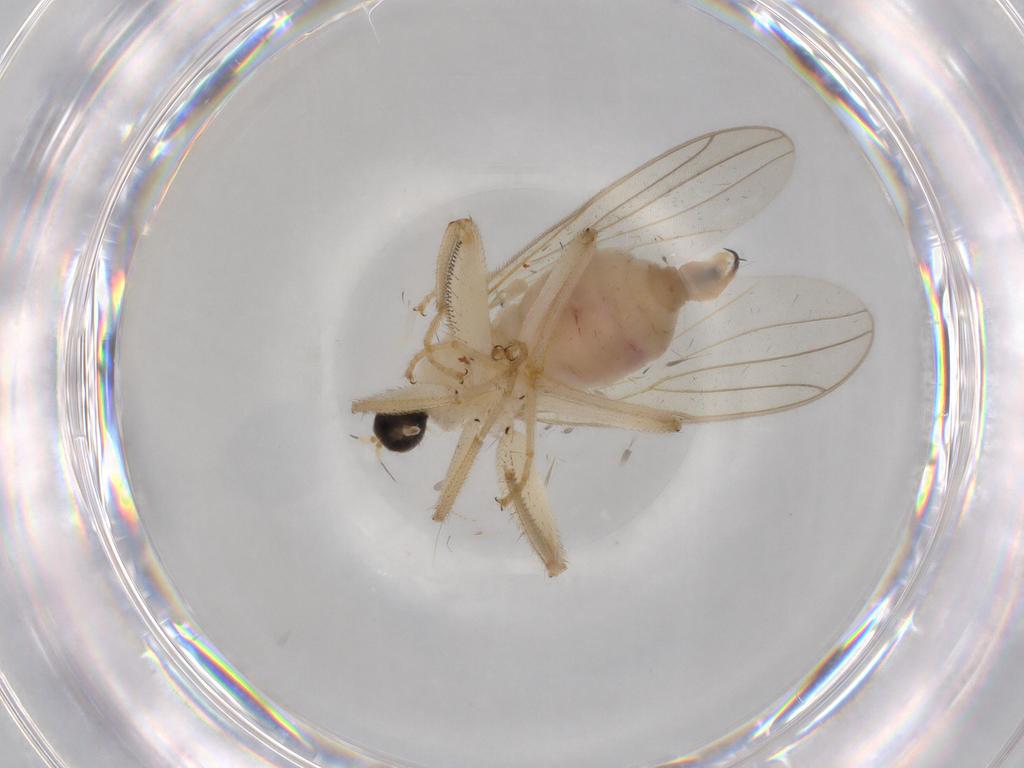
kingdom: Animalia
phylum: Arthropoda
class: Insecta
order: Diptera
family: Hybotidae
